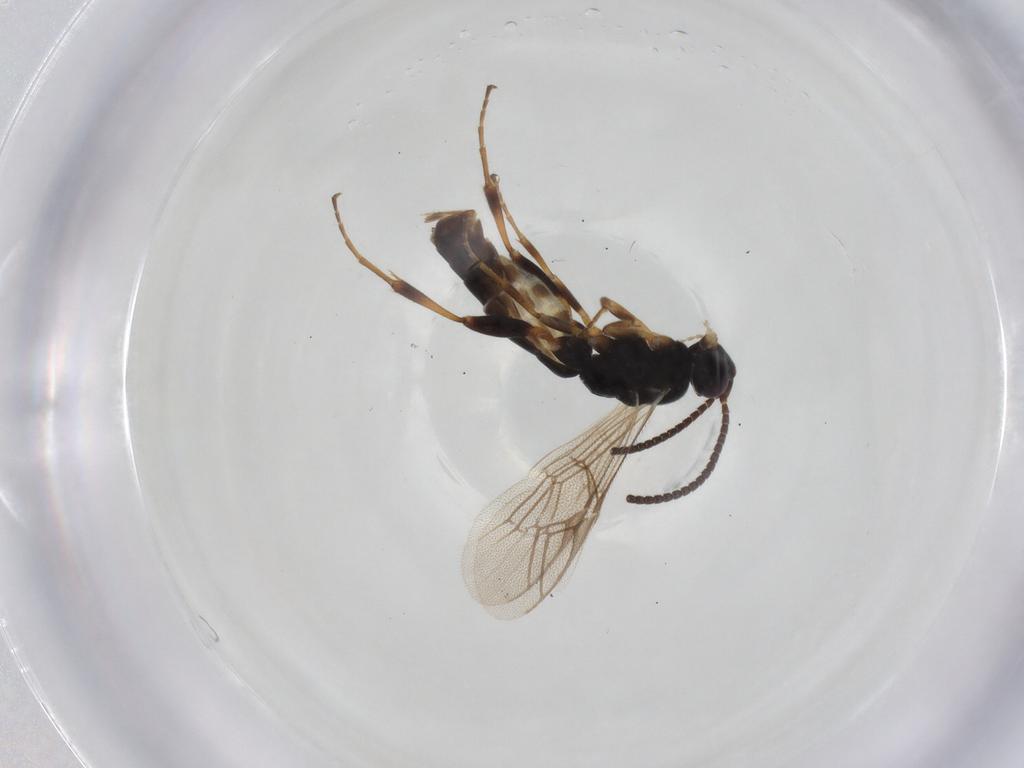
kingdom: Animalia
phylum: Arthropoda
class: Insecta
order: Hymenoptera
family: Ichneumonidae
